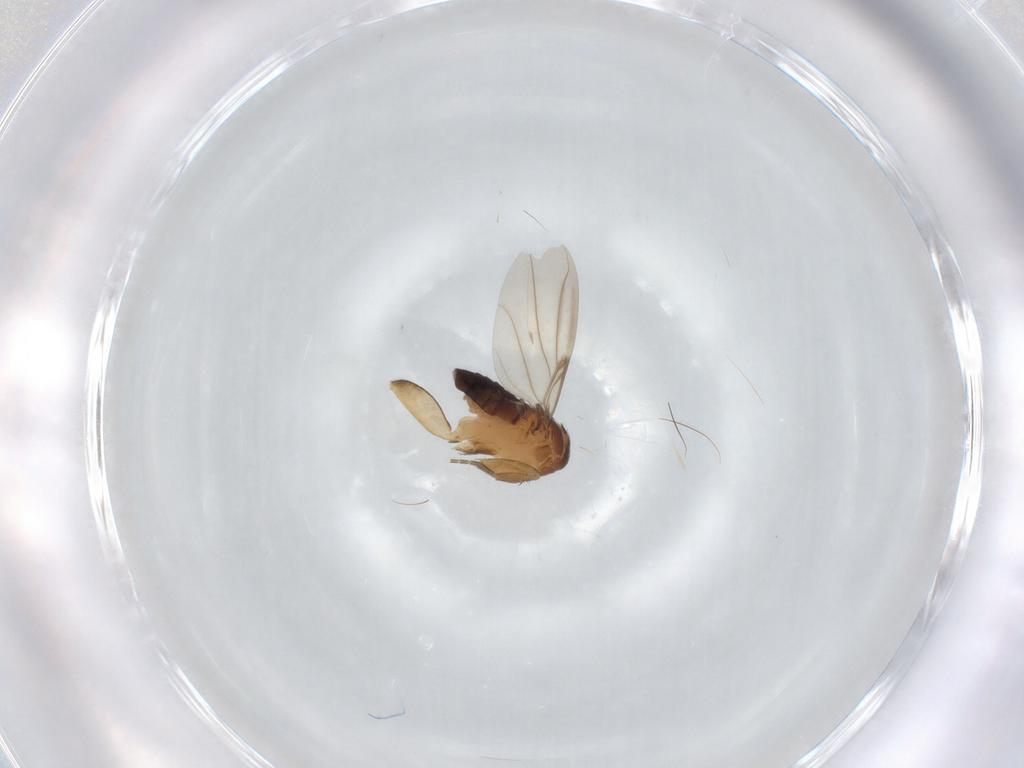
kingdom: Animalia
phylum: Arthropoda
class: Insecta
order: Diptera
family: Phoridae
